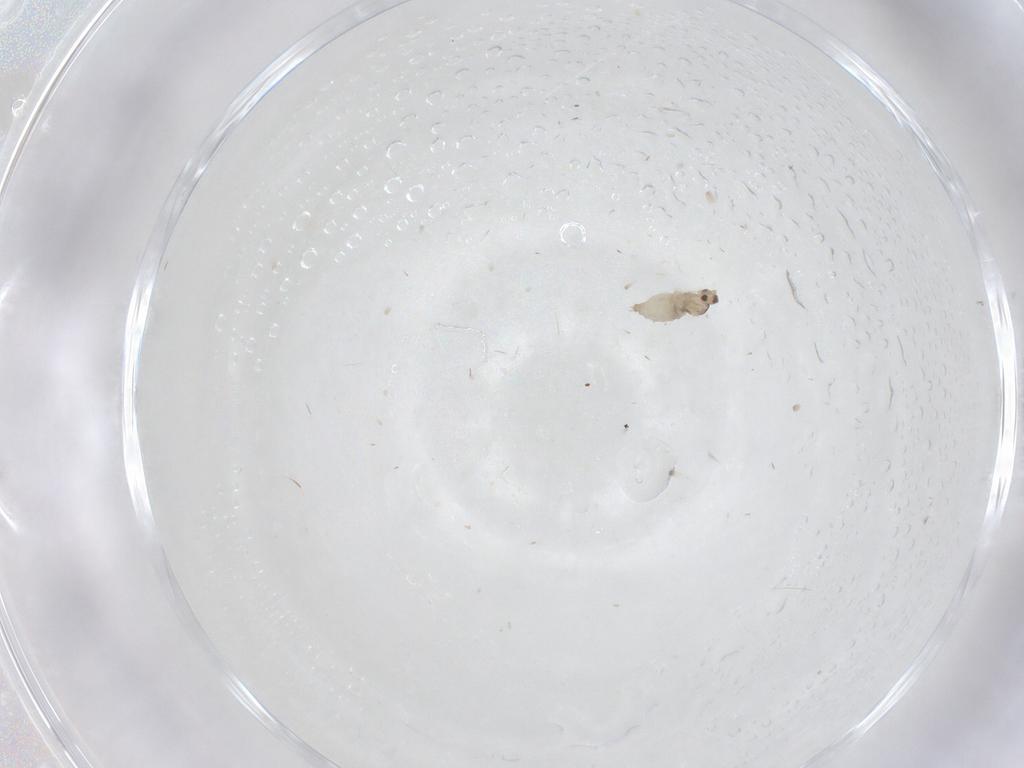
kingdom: Animalia
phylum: Arthropoda
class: Insecta
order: Diptera
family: Cecidomyiidae
